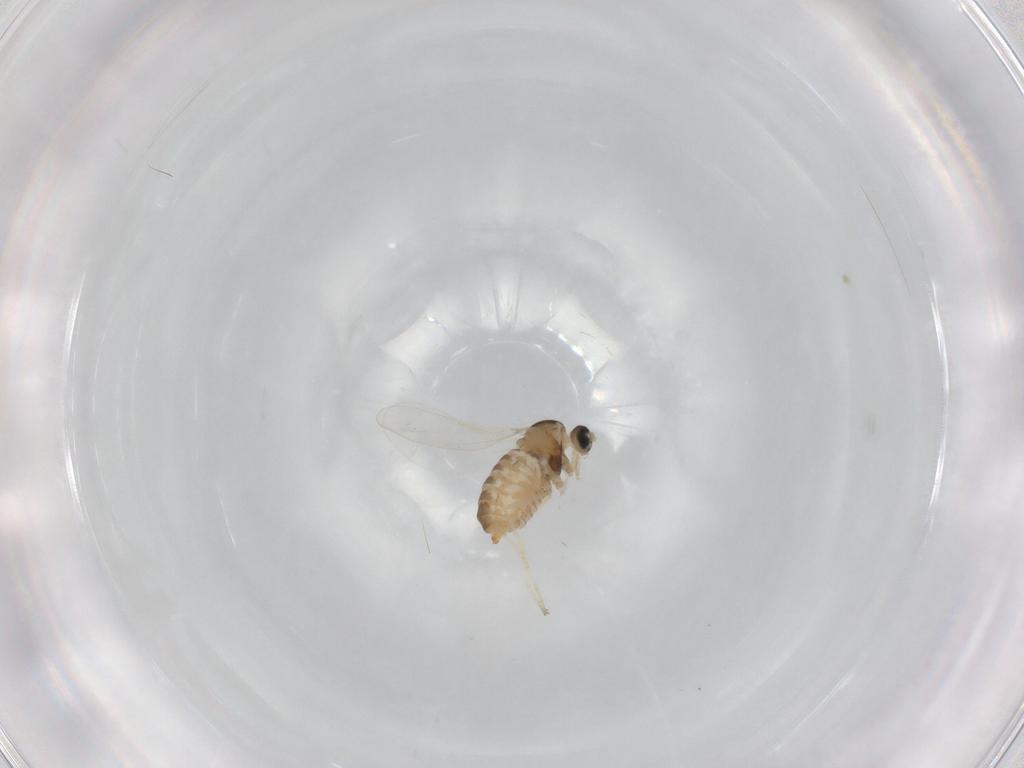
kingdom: Animalia
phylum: Arthropoda
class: Insecta
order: Diptera
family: Cecidomyiidae
